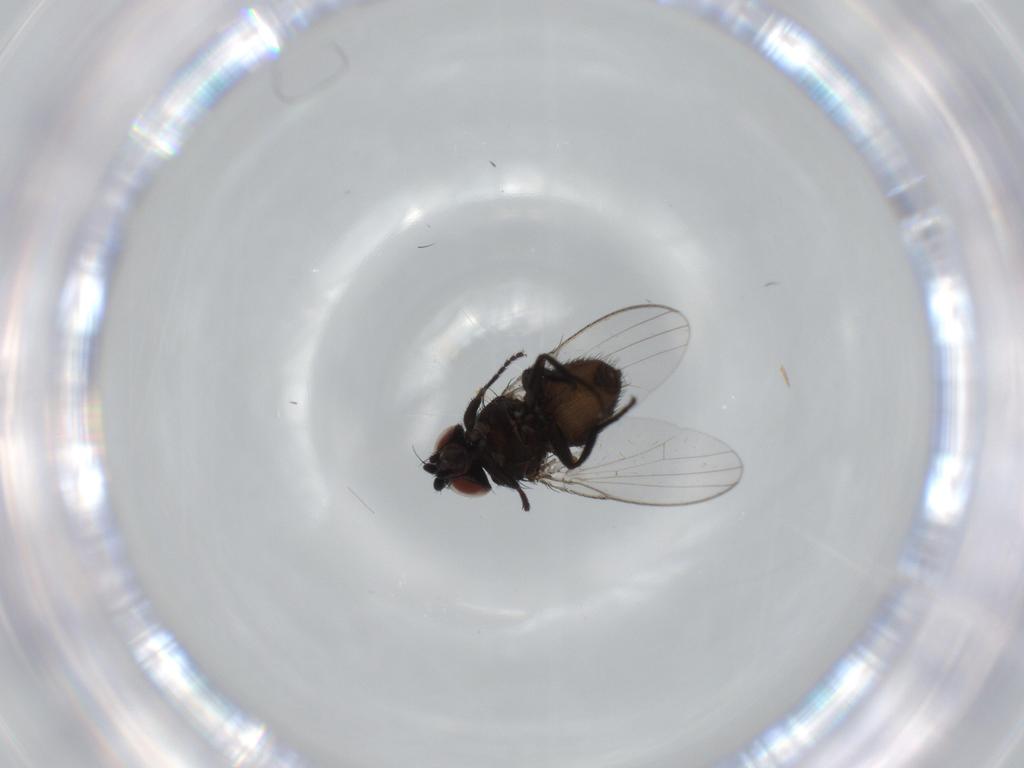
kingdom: Animalia
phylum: Arthropoda
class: Insecta
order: Diptera
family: Milichiidae
